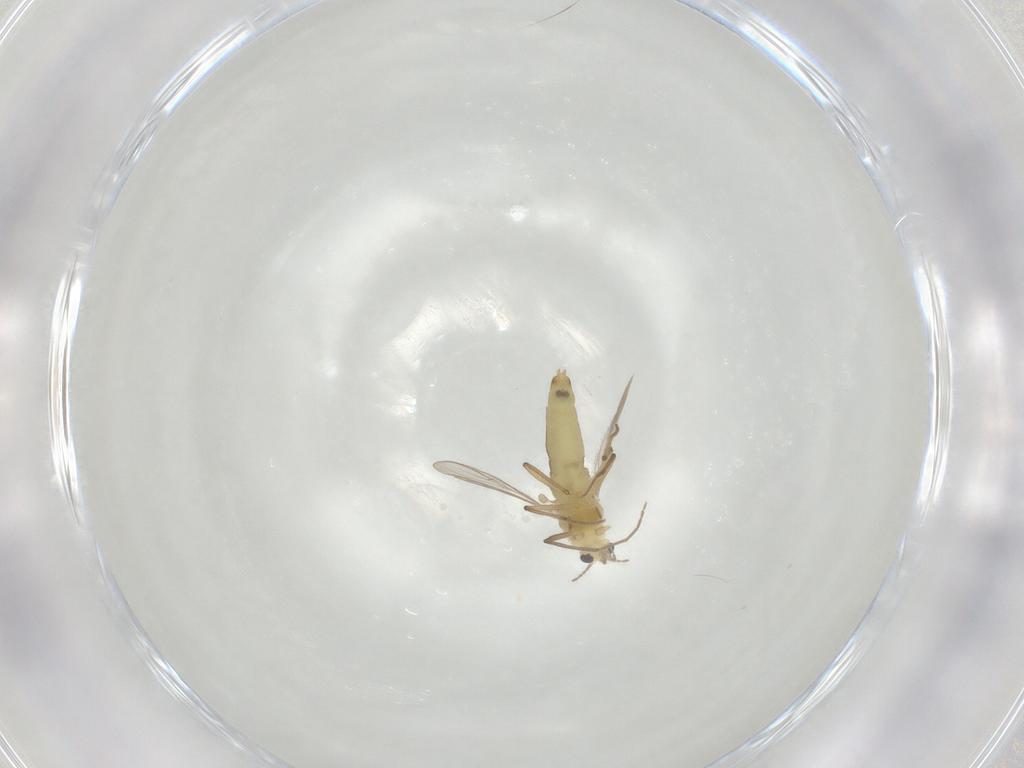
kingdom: Animalia
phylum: Arthropoda
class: Insecta
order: Diptera
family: Chironomidae
